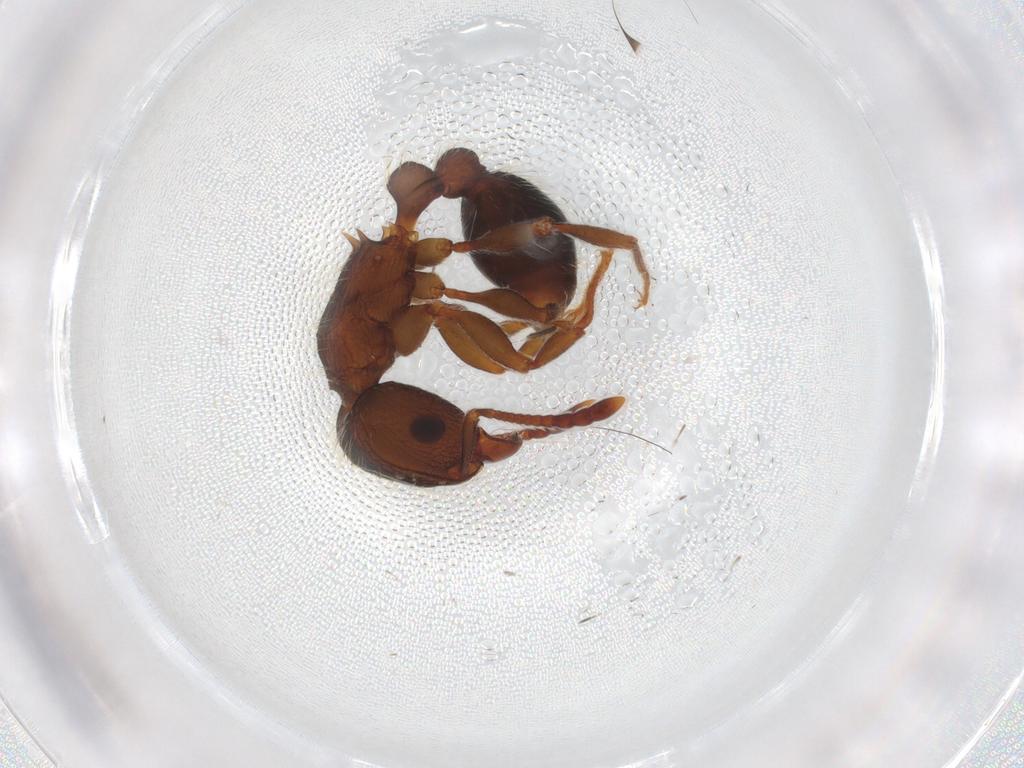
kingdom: Animalia
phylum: Arthropoda
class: Insecta
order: Hymenoptera
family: Formicidae
